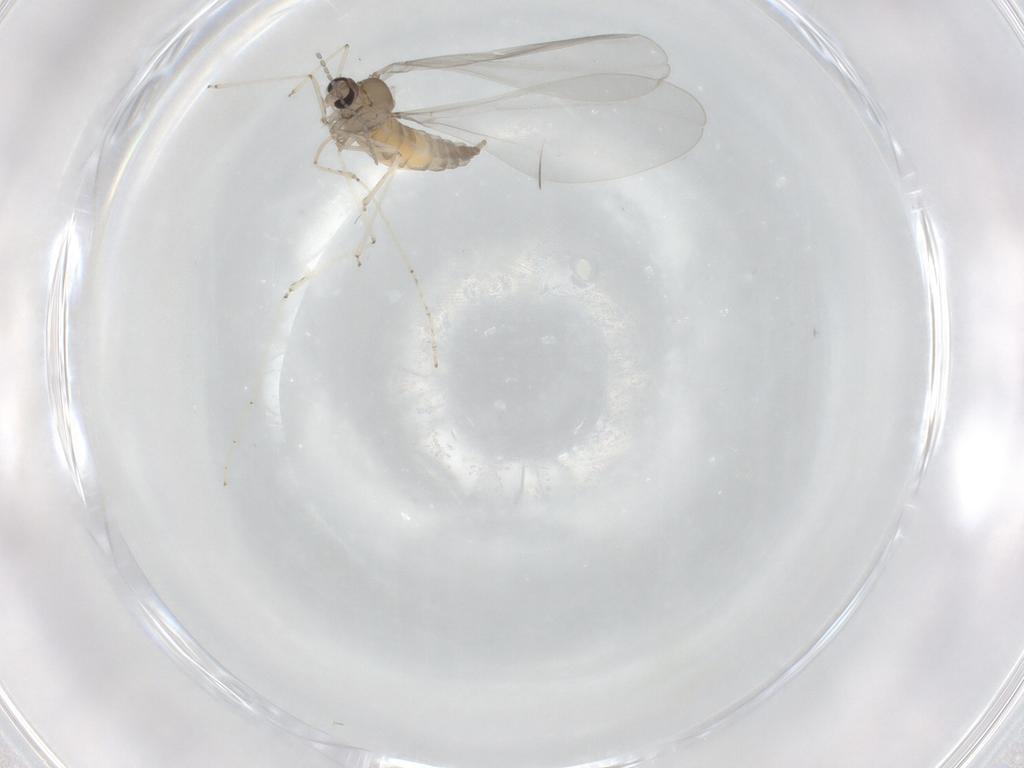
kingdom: Animalia
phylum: Arthropoda
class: Insecta
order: Diptera
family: Cecidomyiidae
